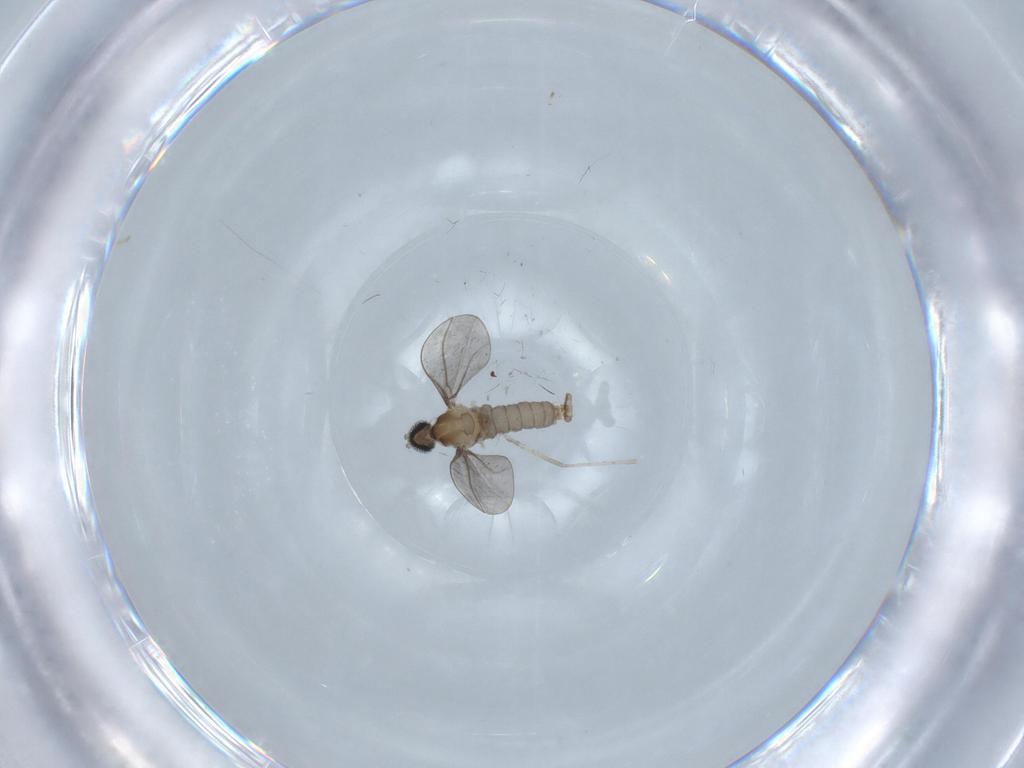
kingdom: Animalia
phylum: Arthropoda
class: Insecta
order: Diptera
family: Cecidomyiidae
